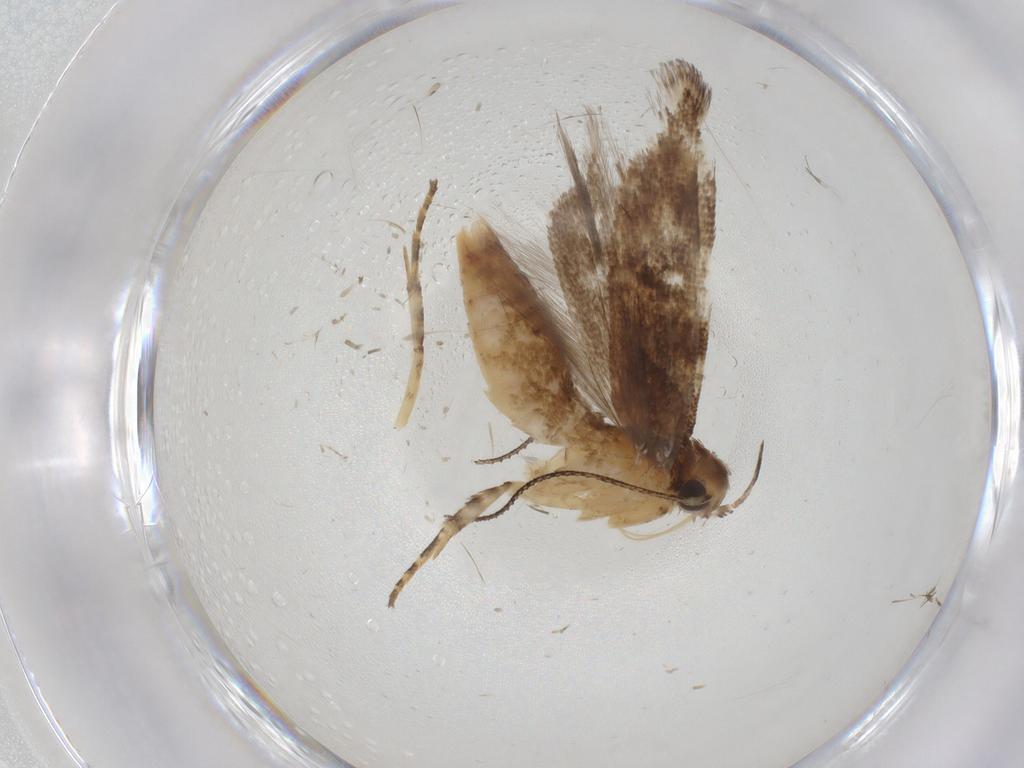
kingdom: Animalia
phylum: Arthropoda
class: Insecta
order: Lepidoptera
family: Gelechiidae
